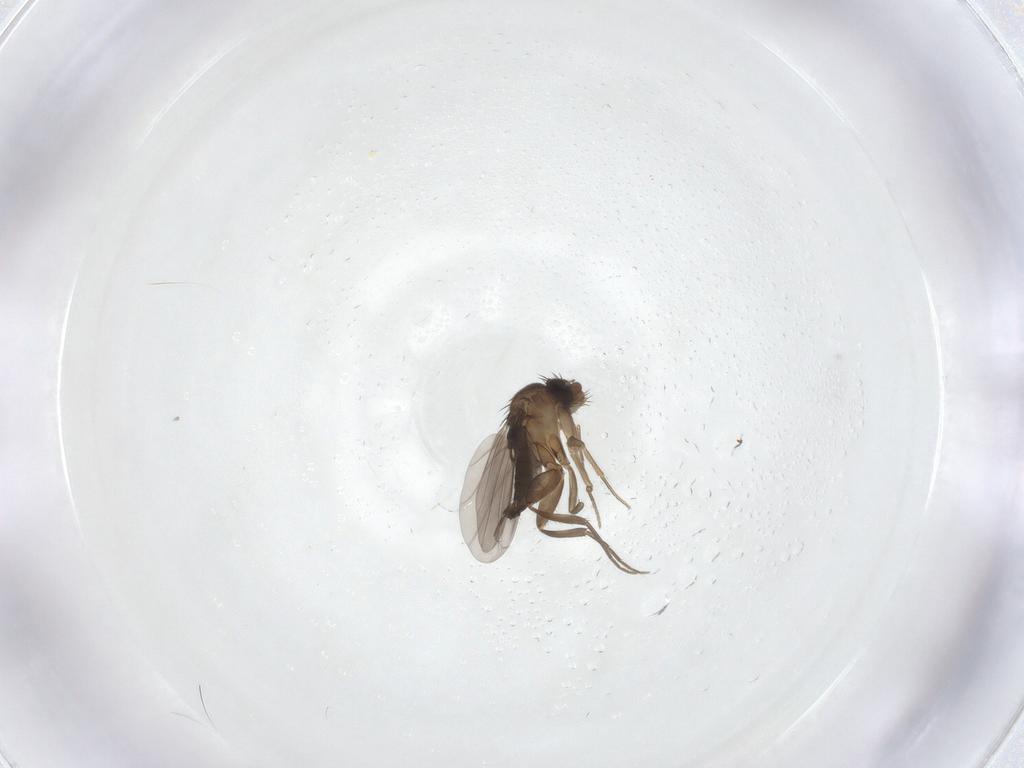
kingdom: Animalia
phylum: Arthropoda
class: Insecta
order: Diptera
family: Phoridae
